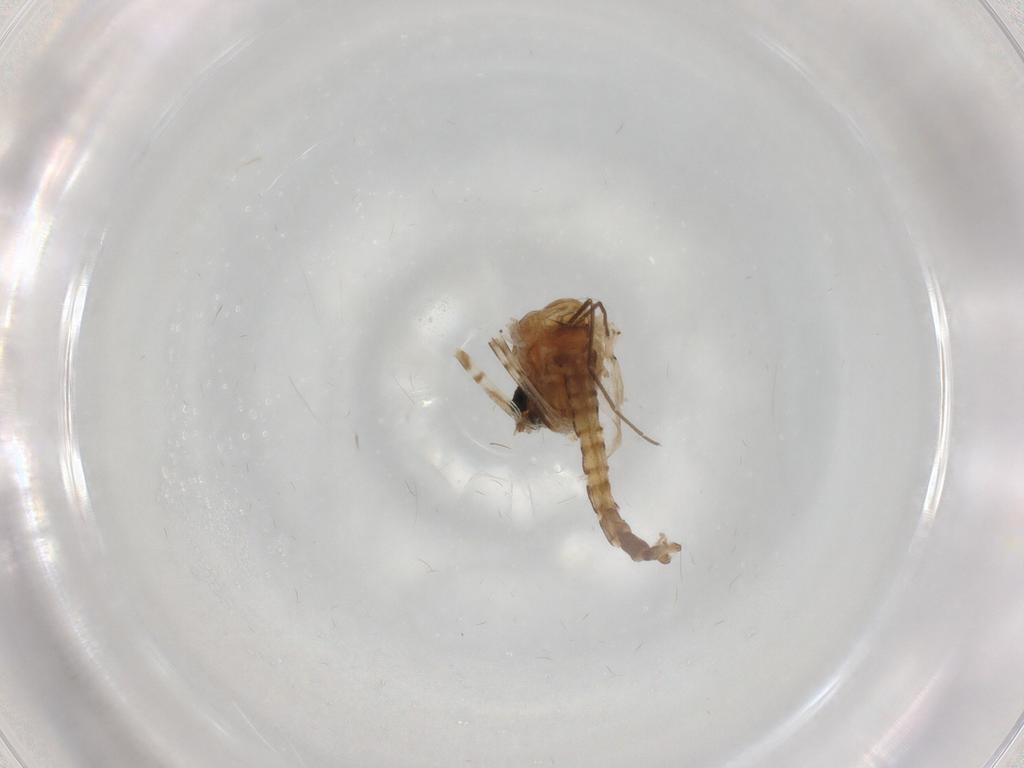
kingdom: Animalia
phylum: Arthropoda
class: Insecta
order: Diptera
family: Chironomidae
